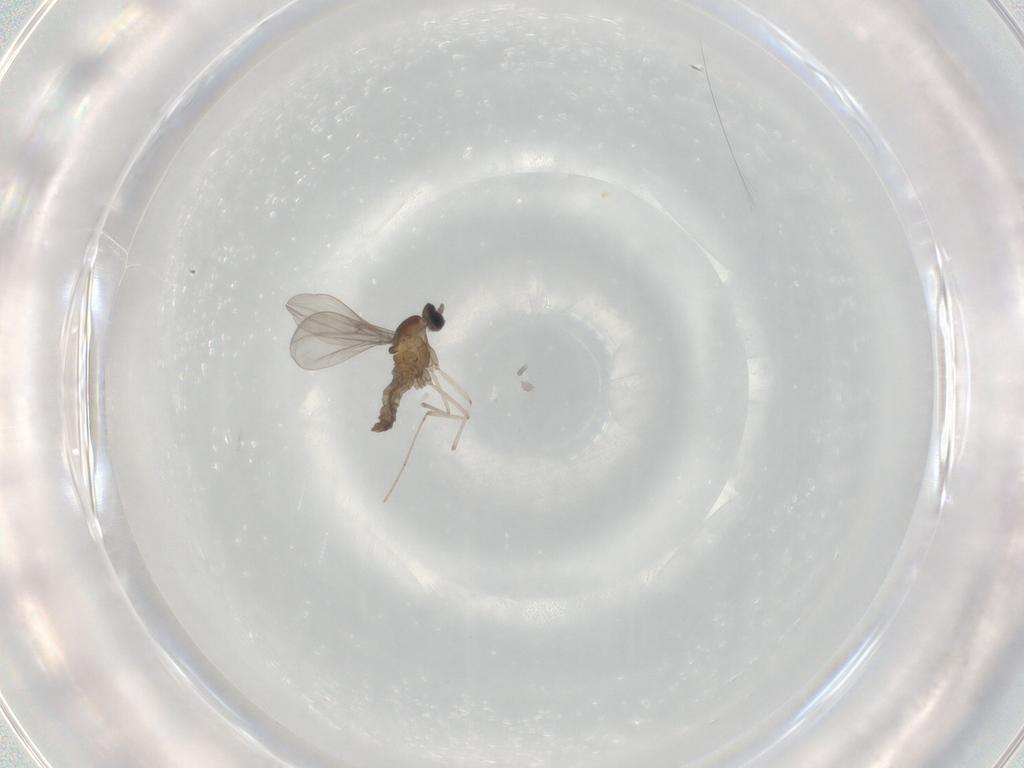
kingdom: Animalia
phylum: Arthropoda
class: Insecta
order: Diptera
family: Cecidomyiidae
